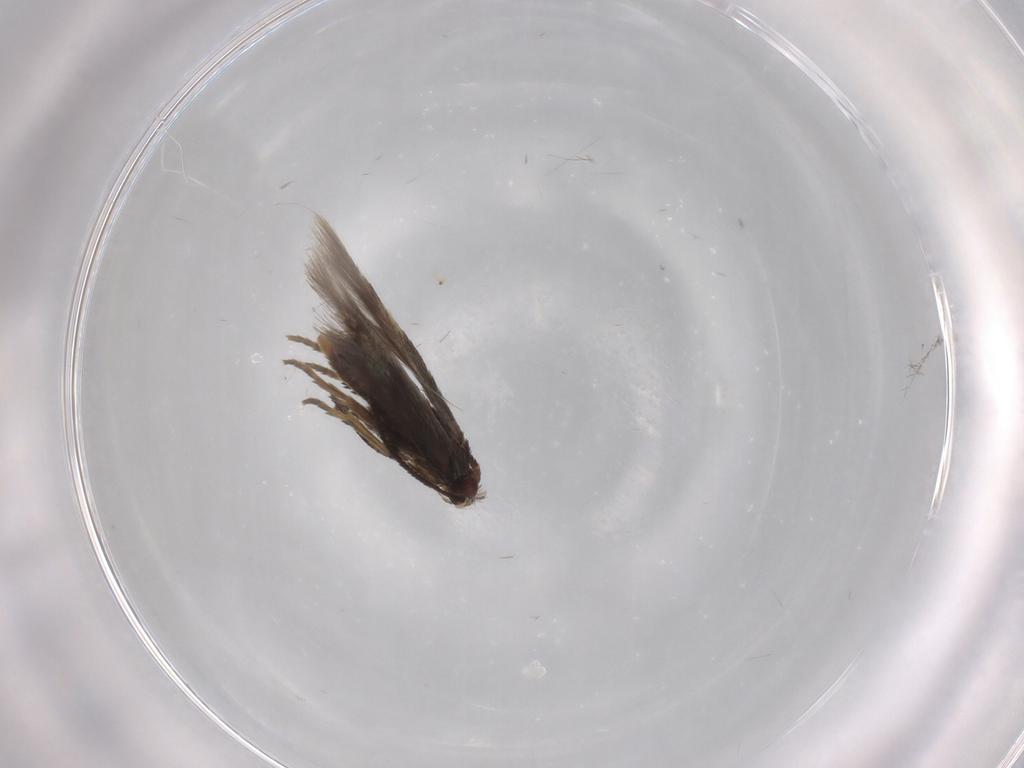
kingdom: Animalia
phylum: Arthropoda
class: Insecta
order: Lepidoptera
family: Nepticulidae
